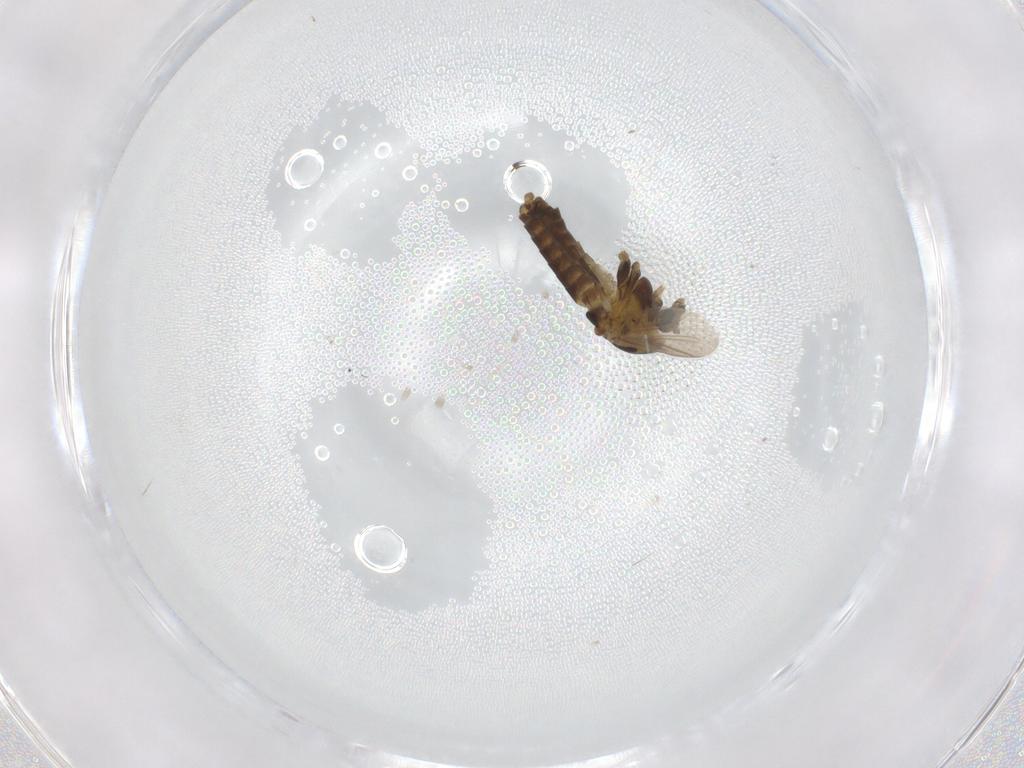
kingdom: Animalia
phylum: Arthropoda
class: Insecta
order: Diptera
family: Chironomidae
